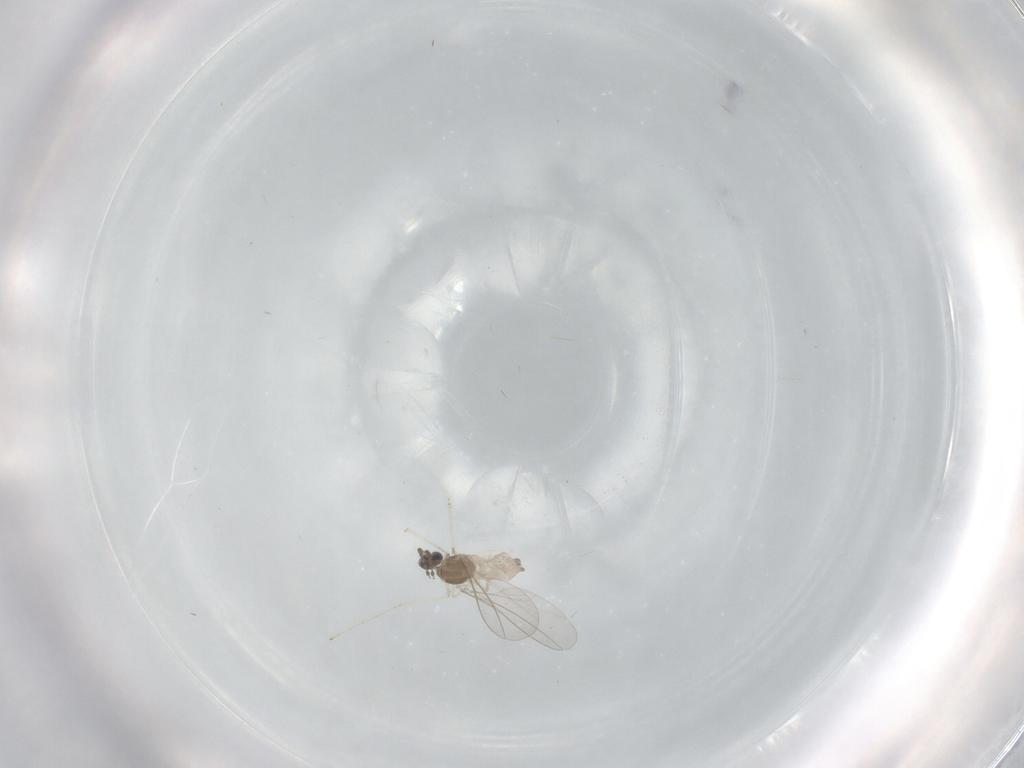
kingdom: Animalia
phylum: Arthropoda
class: Insecta
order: Diptera
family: Cecidomyiidae
